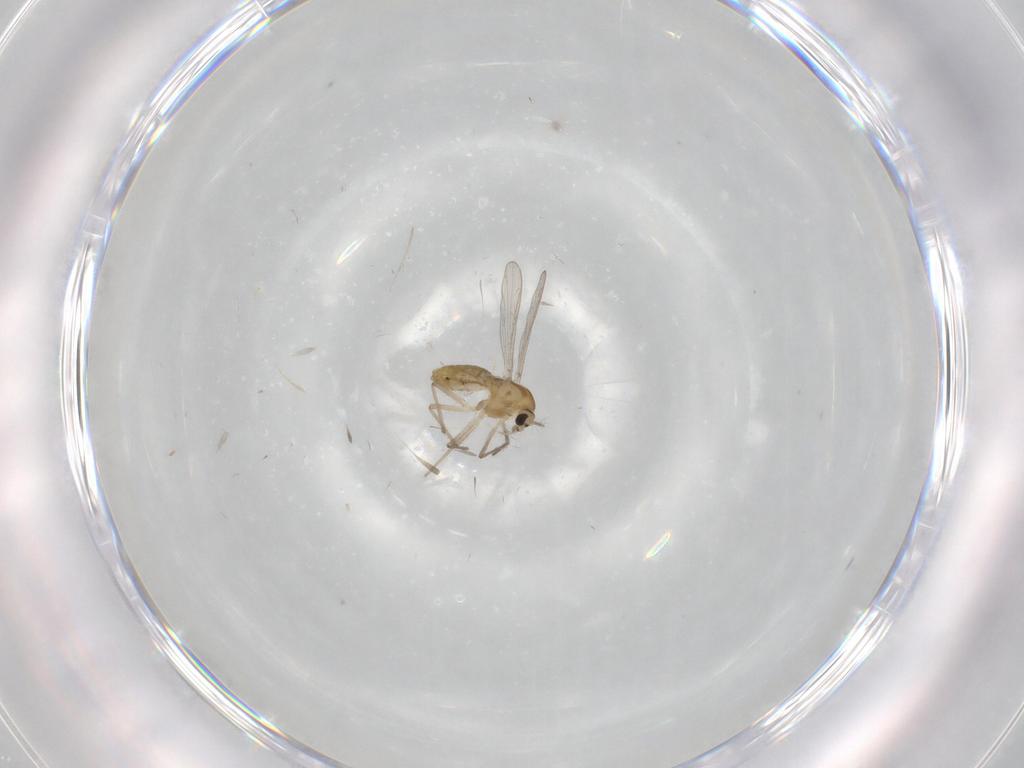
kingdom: Animalia
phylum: Arthropoda
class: Insecta
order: Diptera
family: Chironomidae
